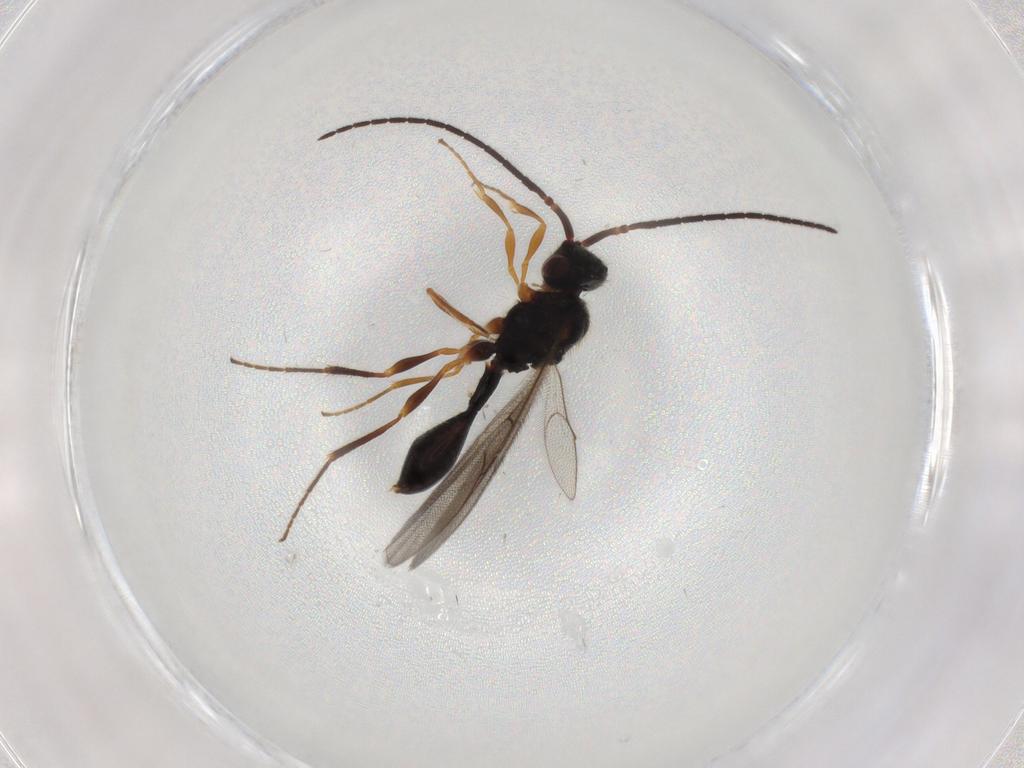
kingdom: Animalia
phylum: Arthropoda
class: Insecta
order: Hymenoptera
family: Diapriidae
